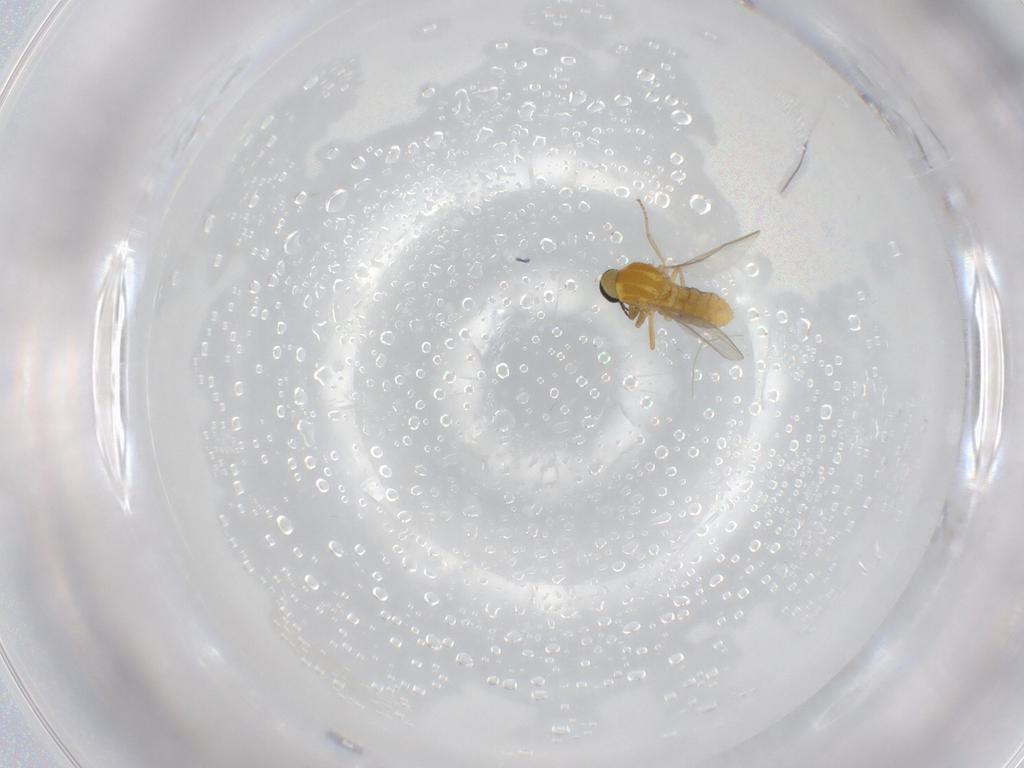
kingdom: Animalia
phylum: Arthropoda
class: Insecta
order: Diptera
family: Ceratopogonidae
